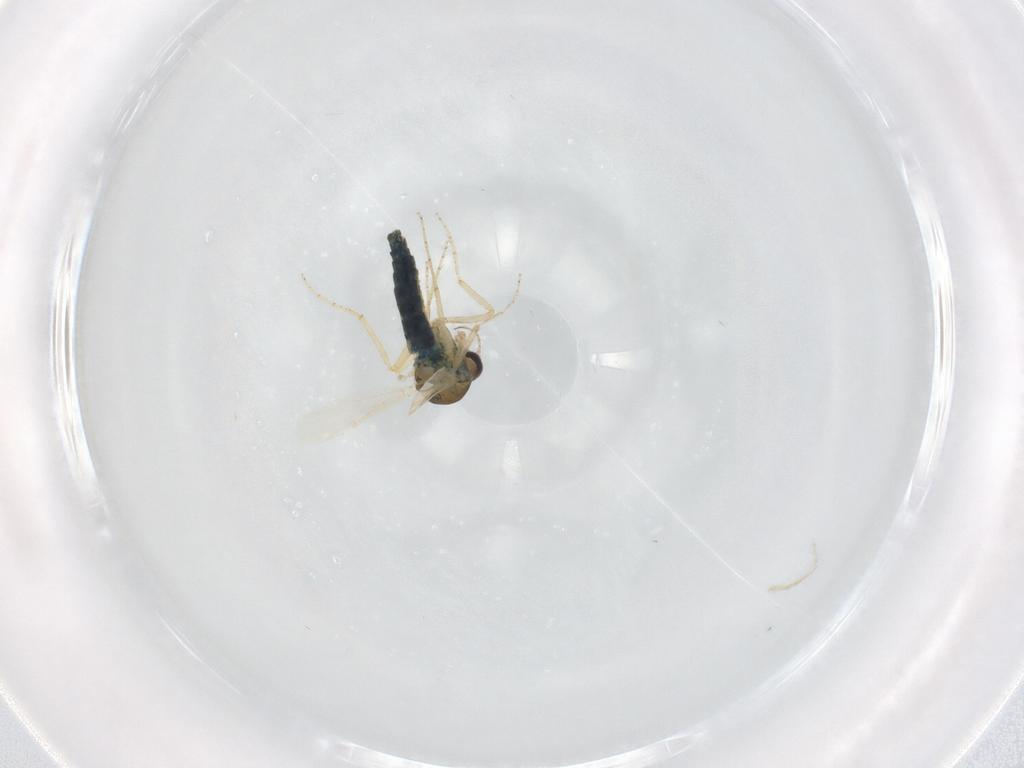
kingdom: Animalia
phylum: Arthropoda
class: Insecta
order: Diptera
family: Ceratopogonidae
